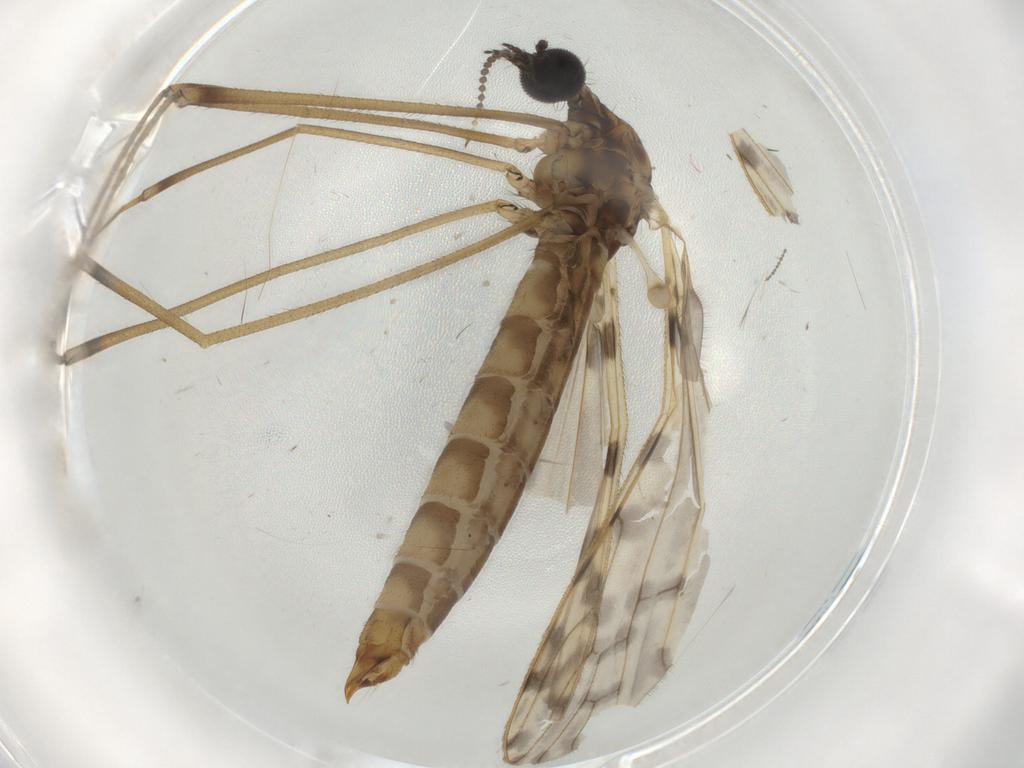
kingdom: Animalia
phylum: Arthropoda
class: Insecta
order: Diptera
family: Limoniidae
